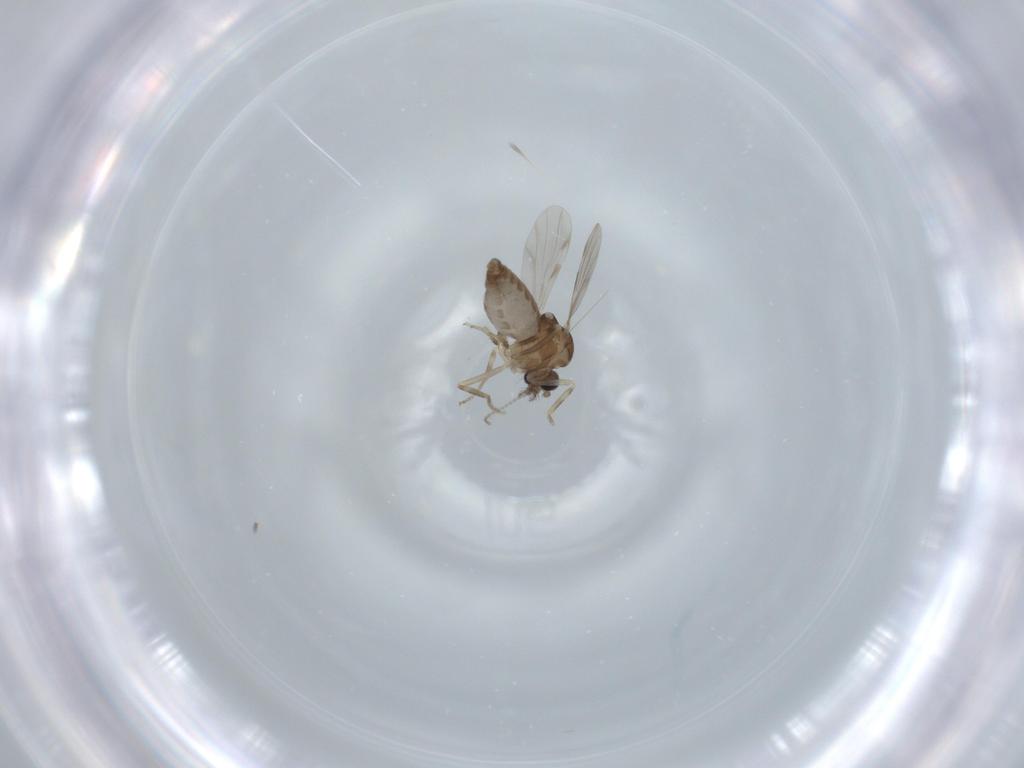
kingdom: Animalia
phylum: Arthropoda
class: Insecta
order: Diptera
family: Ceratopogonidae
